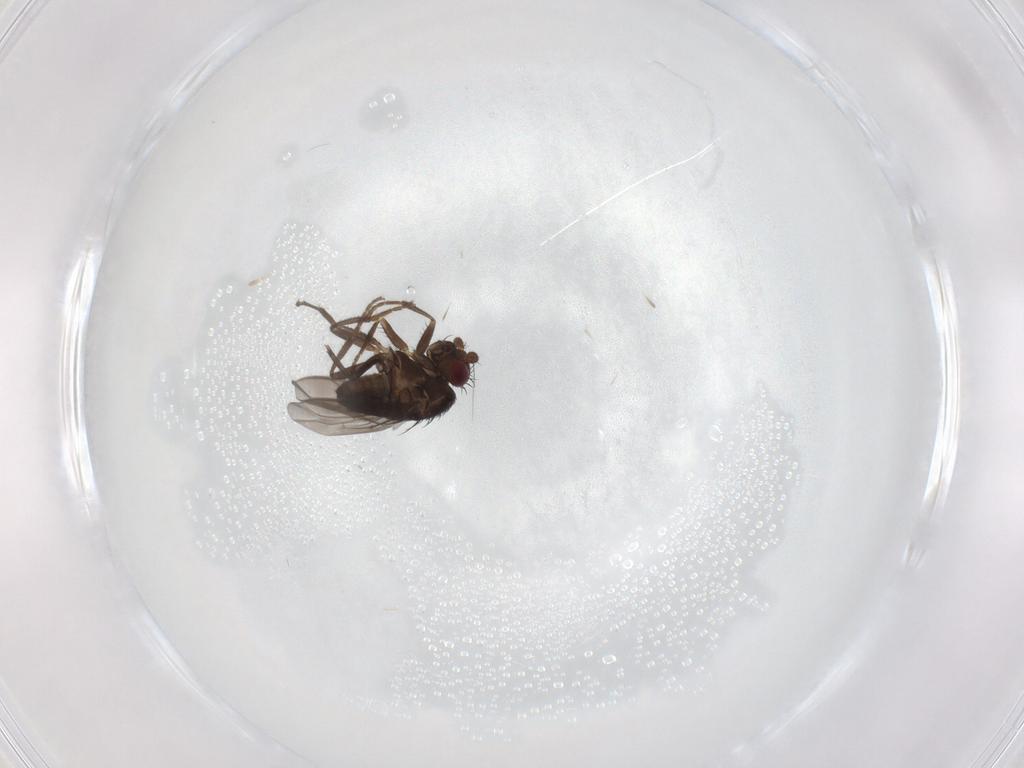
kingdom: Animalia
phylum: Arthropoda
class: Insecta
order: Diptera
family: Sphaeroceridae
